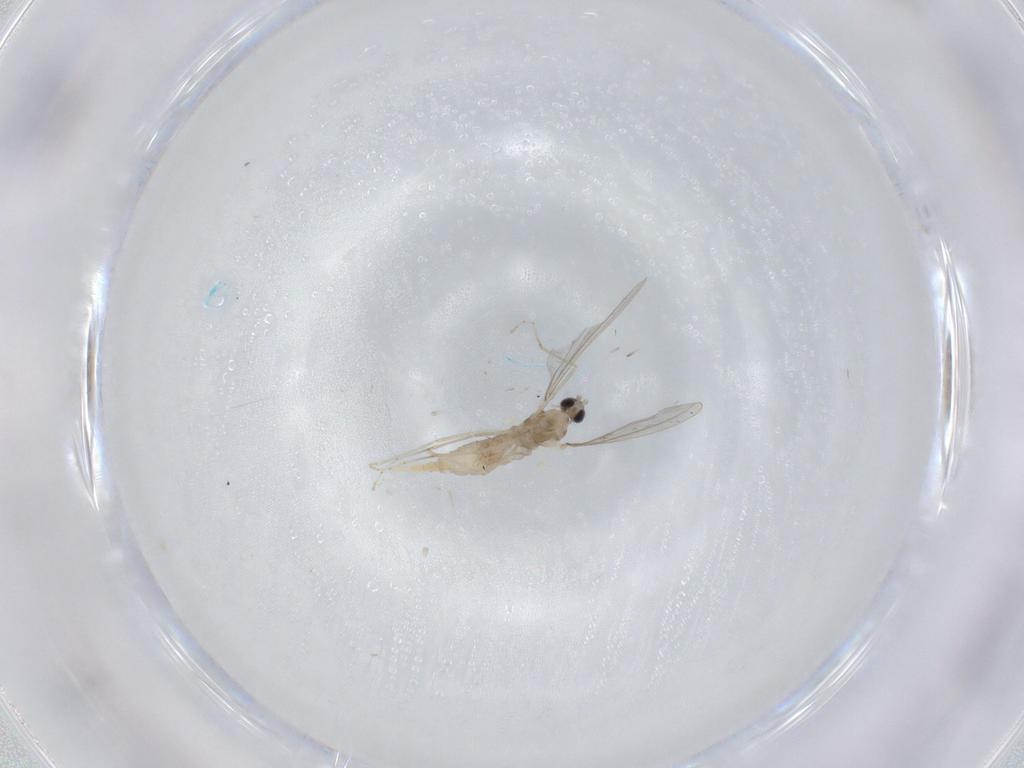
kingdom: Animalia
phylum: Arthropoda
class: Insecta
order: Diptera
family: Cecidomyiidae
